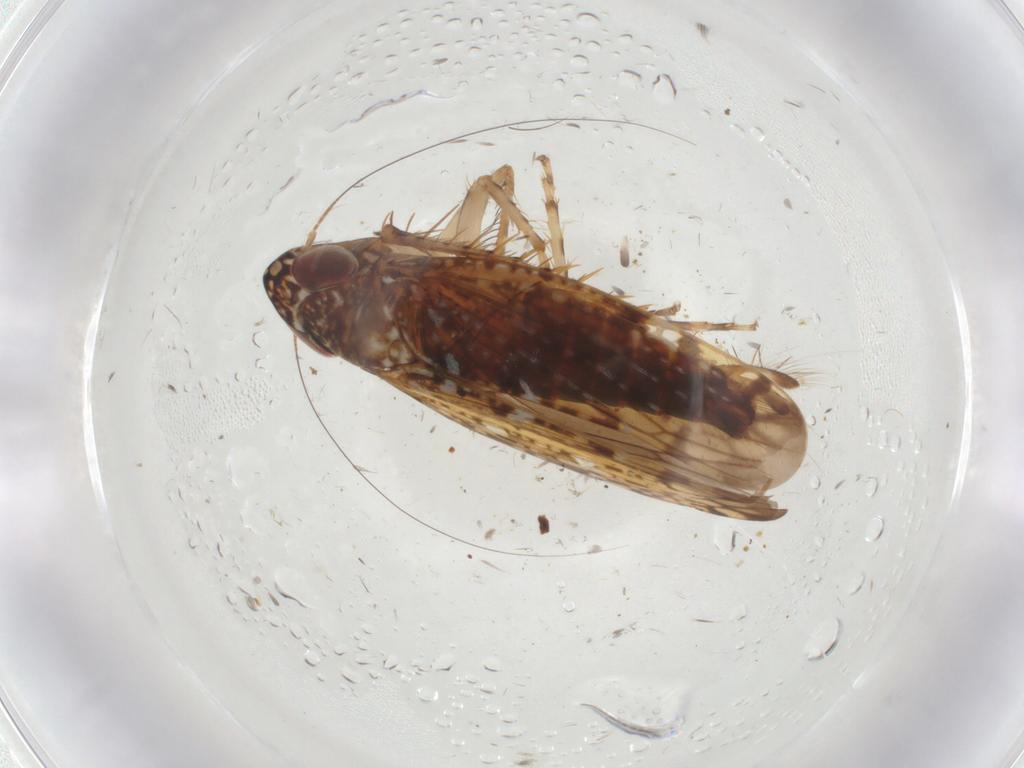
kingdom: Animalia
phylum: Arthropoda
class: Insecta
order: Hemiptera
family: Cicadellidae
